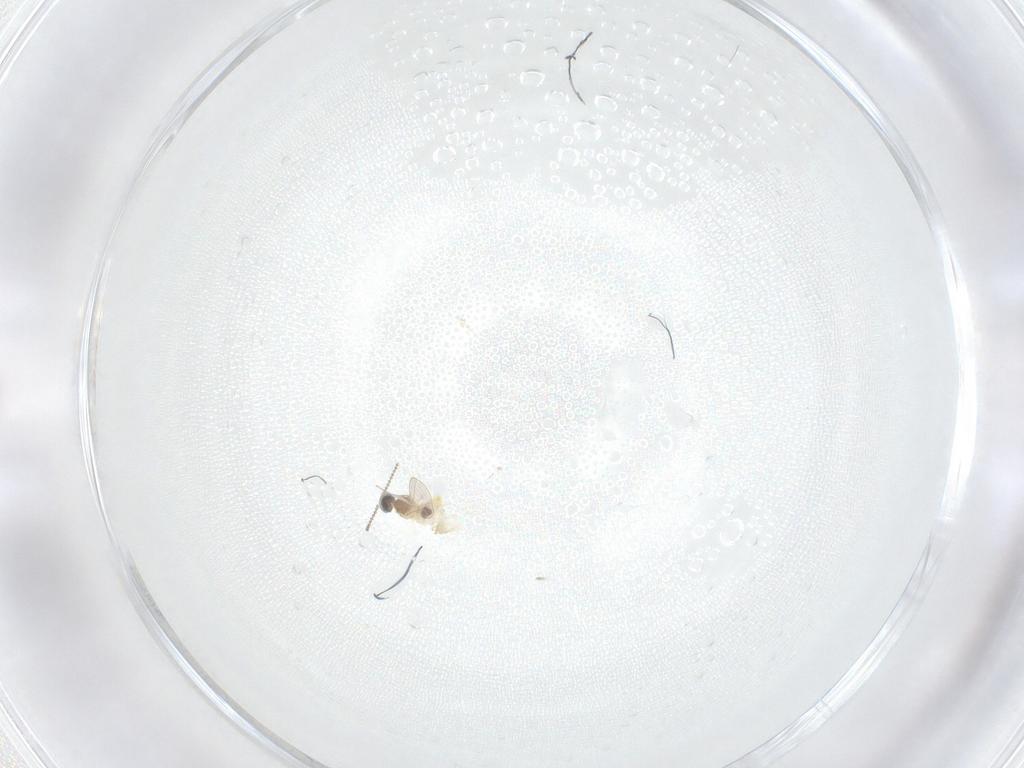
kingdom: Animalia
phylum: Arthropoda
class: Insecta
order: Diptera
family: Cecidomyiidae
